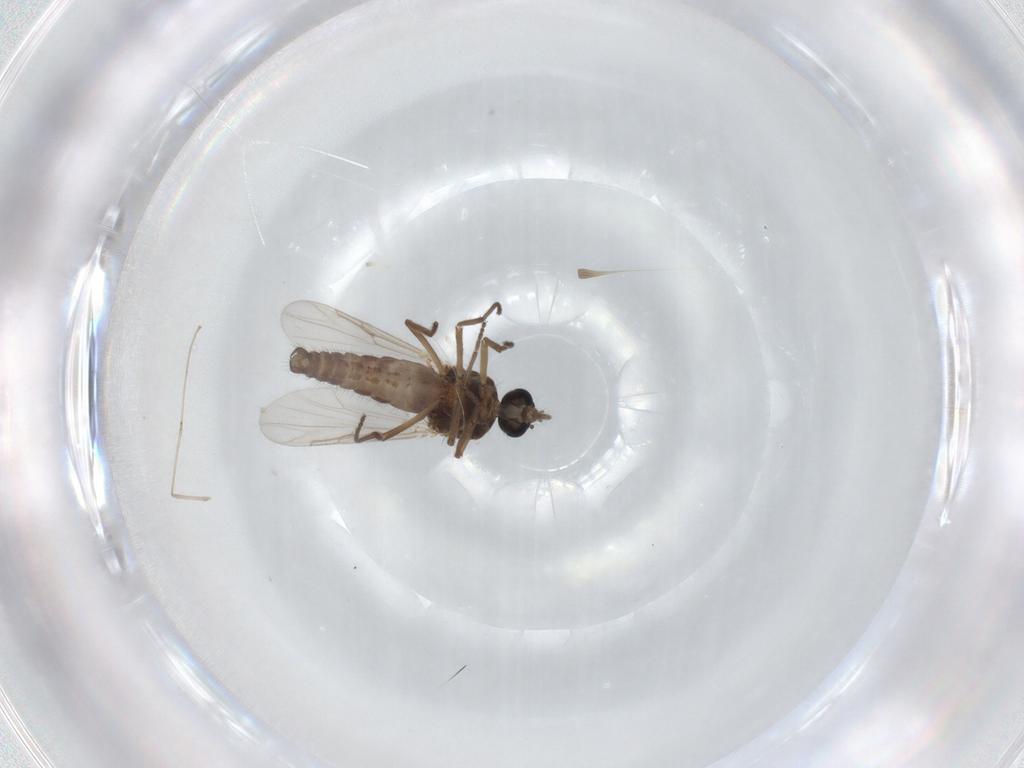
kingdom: Animalia
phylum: Arthropoda
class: Insecta
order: Diptera
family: Ceratopogonidae
